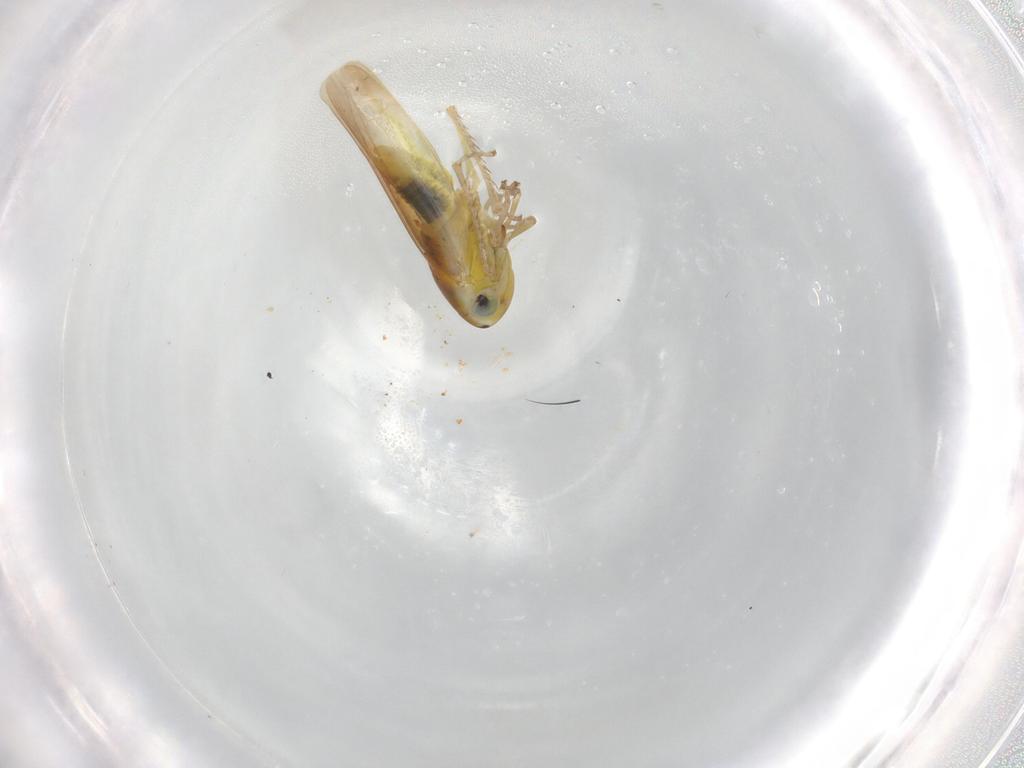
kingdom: Animalia
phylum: Arthropoda
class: Insecta
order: Hemiptera
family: Cicadellidae
